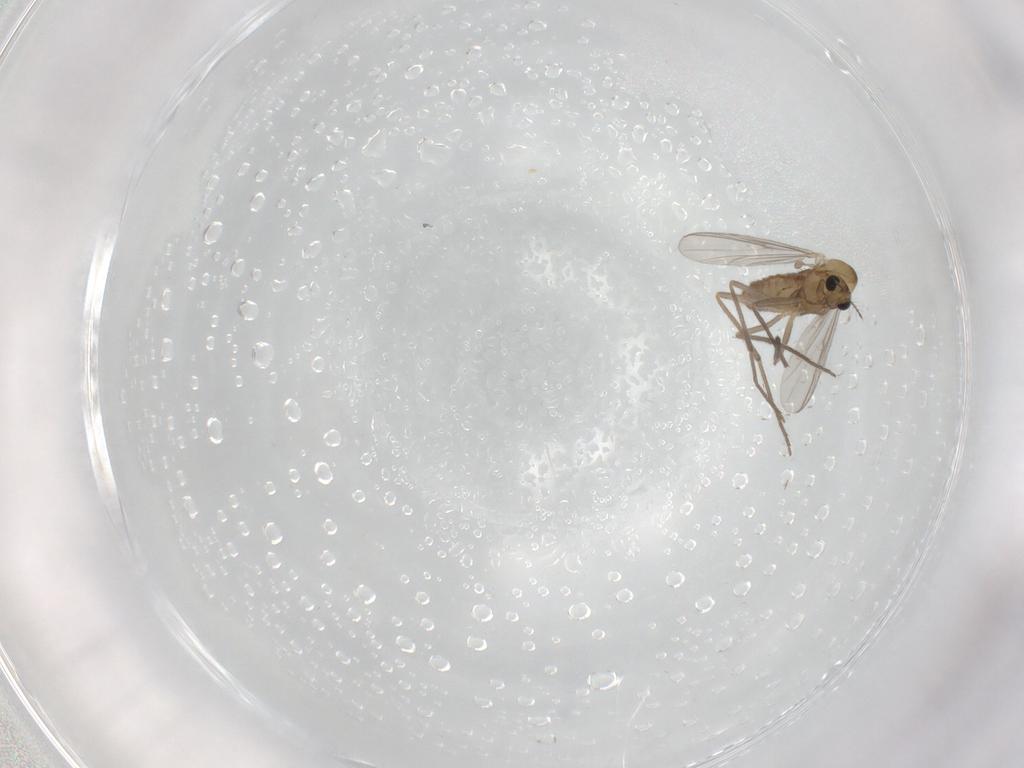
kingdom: Animalia
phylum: Arthropoda
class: Insecta
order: Diptera
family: Chironomidae
